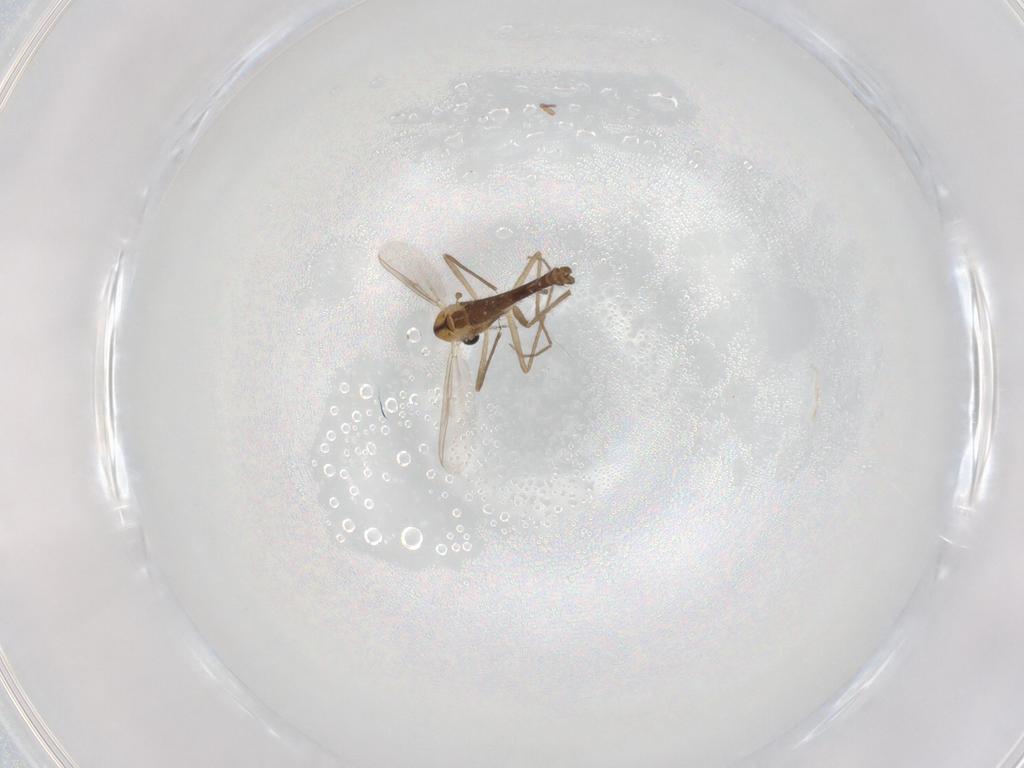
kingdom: Animalia
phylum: Arthropoda
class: Insecta
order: Diptera
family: Chironomidae
